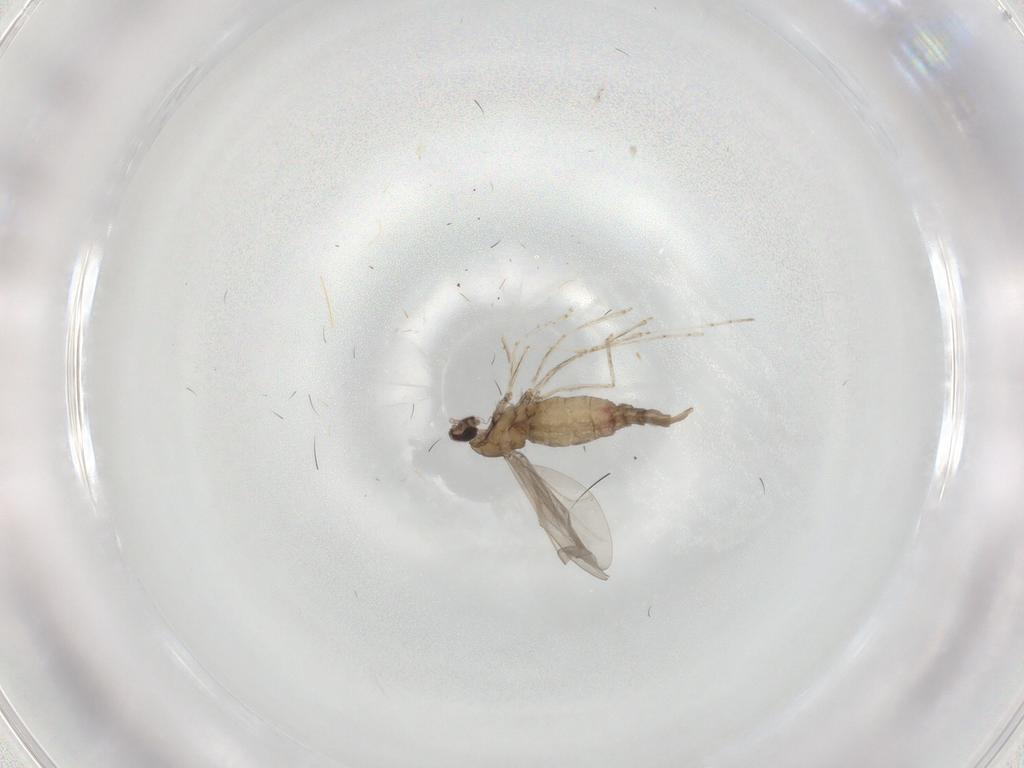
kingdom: Animalia
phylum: Arthropoda
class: Insecta
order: Diptera
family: Cecidomyiidae
